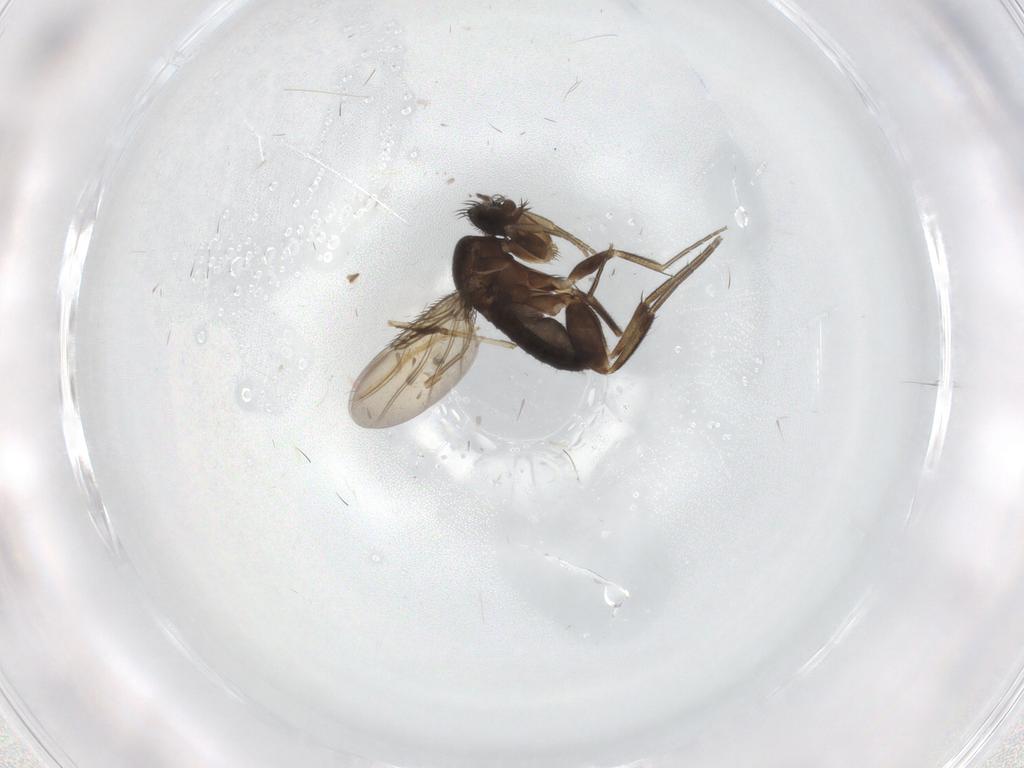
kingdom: Animalia
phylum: Arthropoda
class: Insecta
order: Diptera
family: Phoridae
